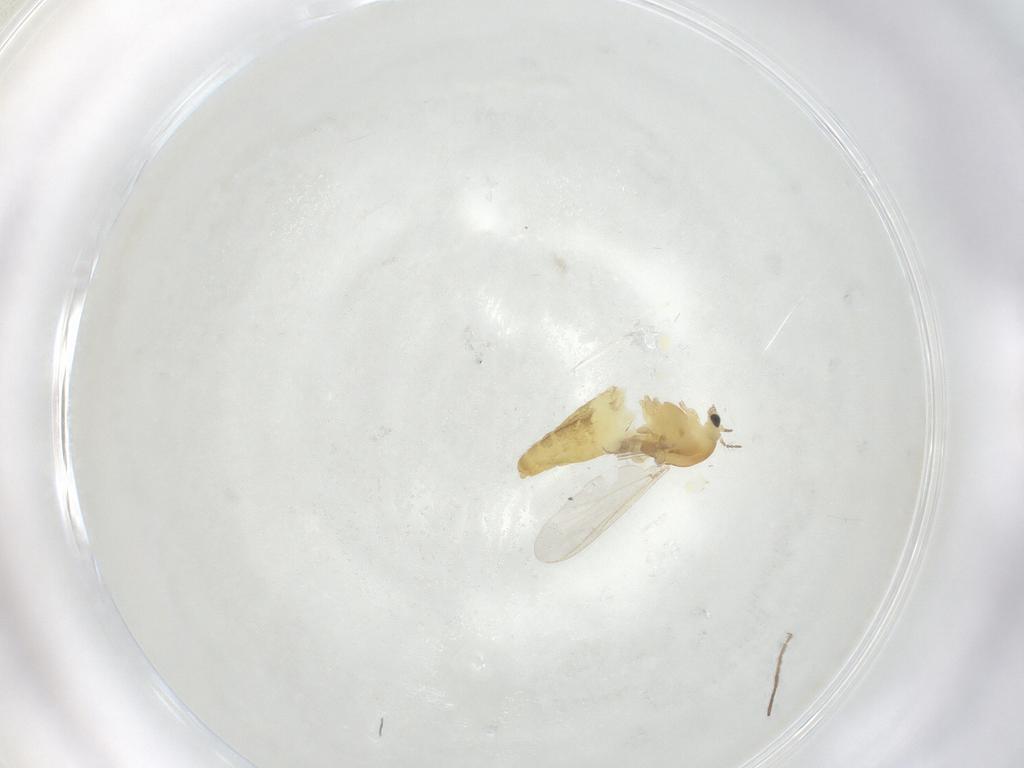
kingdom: Animalia
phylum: Arthropoda
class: Insecta
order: Diptera
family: Chironomidae
